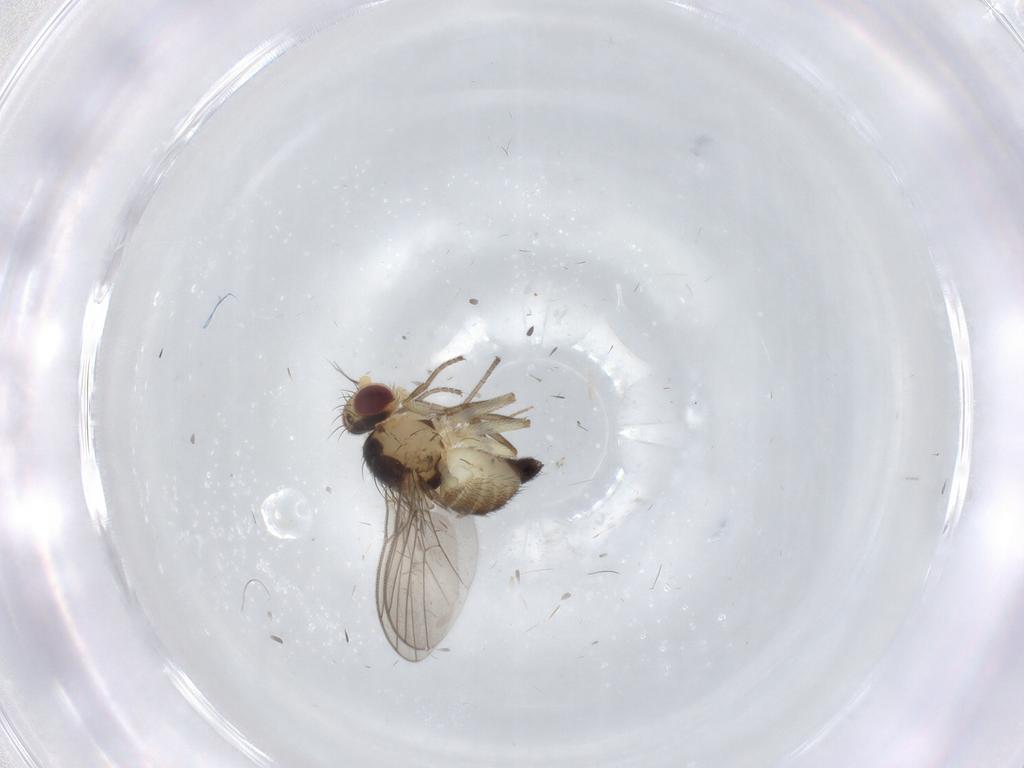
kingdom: Animalia
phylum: Arthropoda
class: Insecta
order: Diptera
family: Agromyzidae
